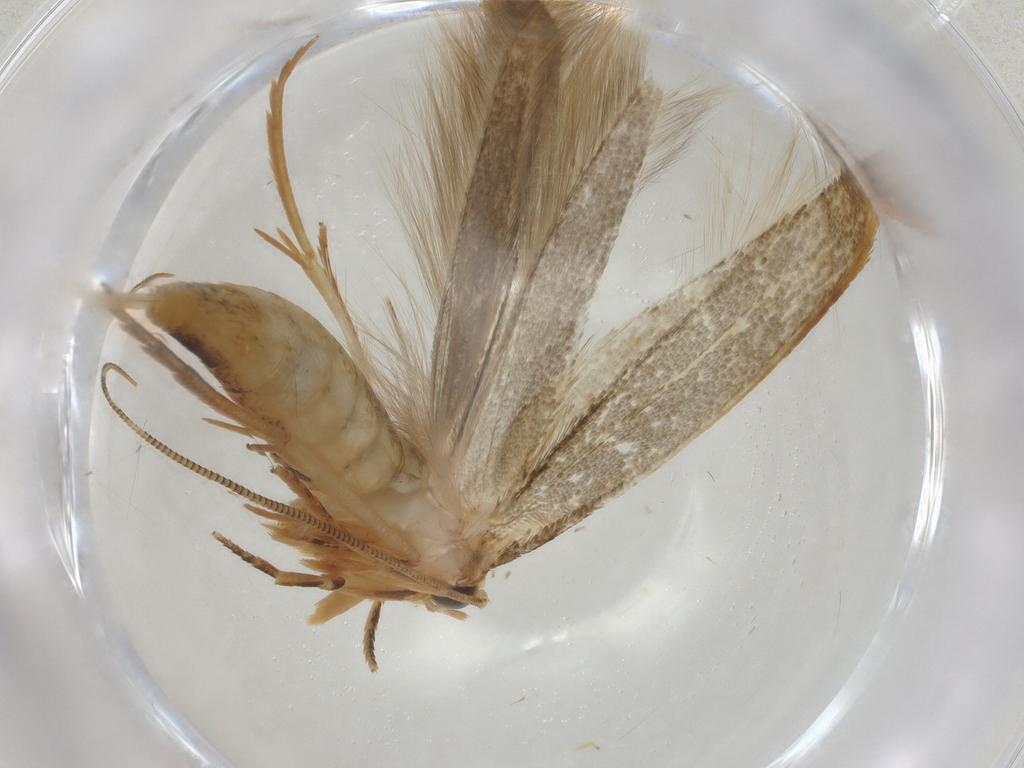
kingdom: Animalia
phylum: Arthropoda
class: Insecta
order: Lepidoptera
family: Tineidae
